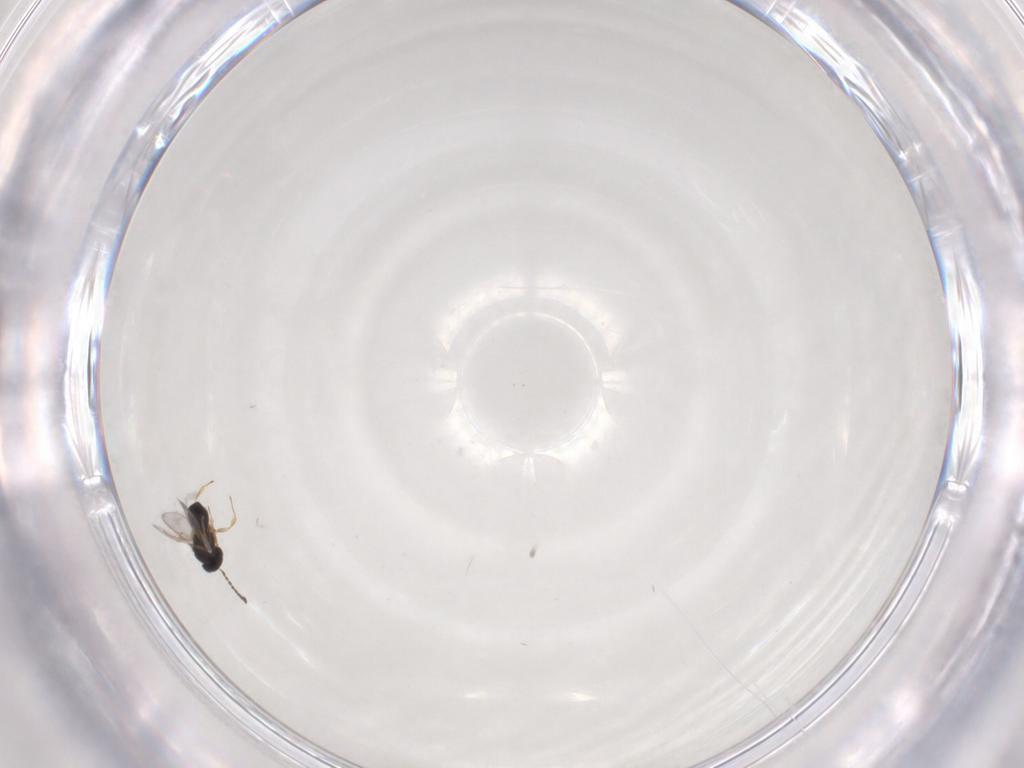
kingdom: Animalia
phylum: Arthropoda
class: Insecta
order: Hymenoptera
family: Scelionidae
